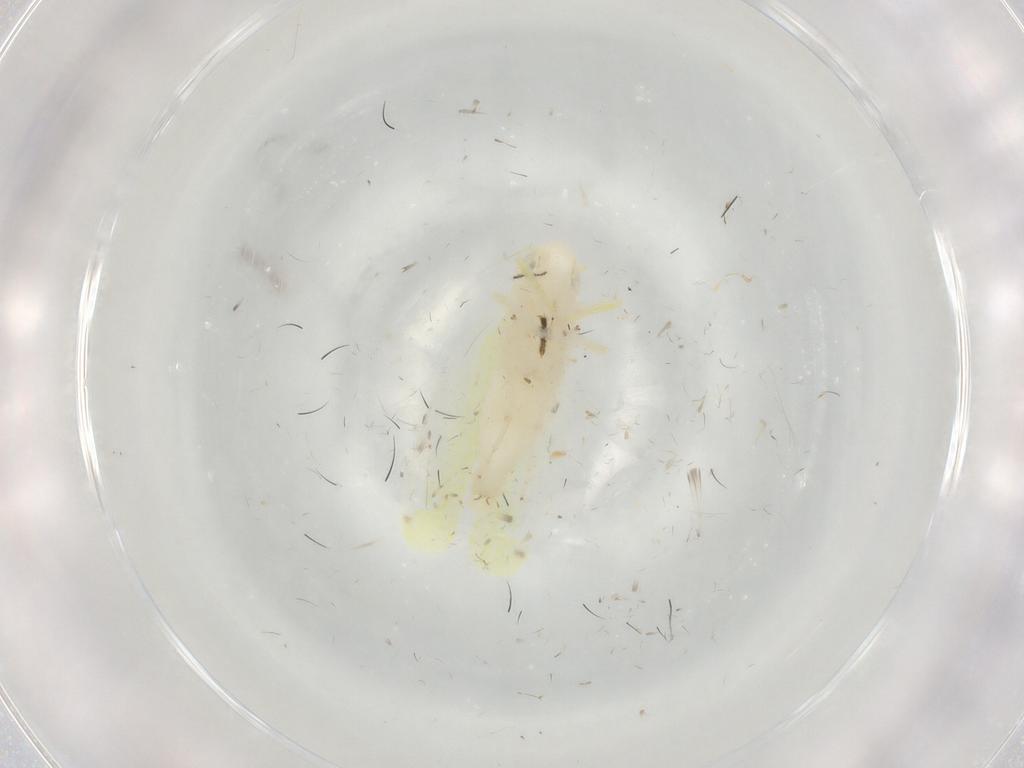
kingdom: Animalia
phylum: Arthropoda
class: Insecta
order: Hemiptera
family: Cicadellidae
